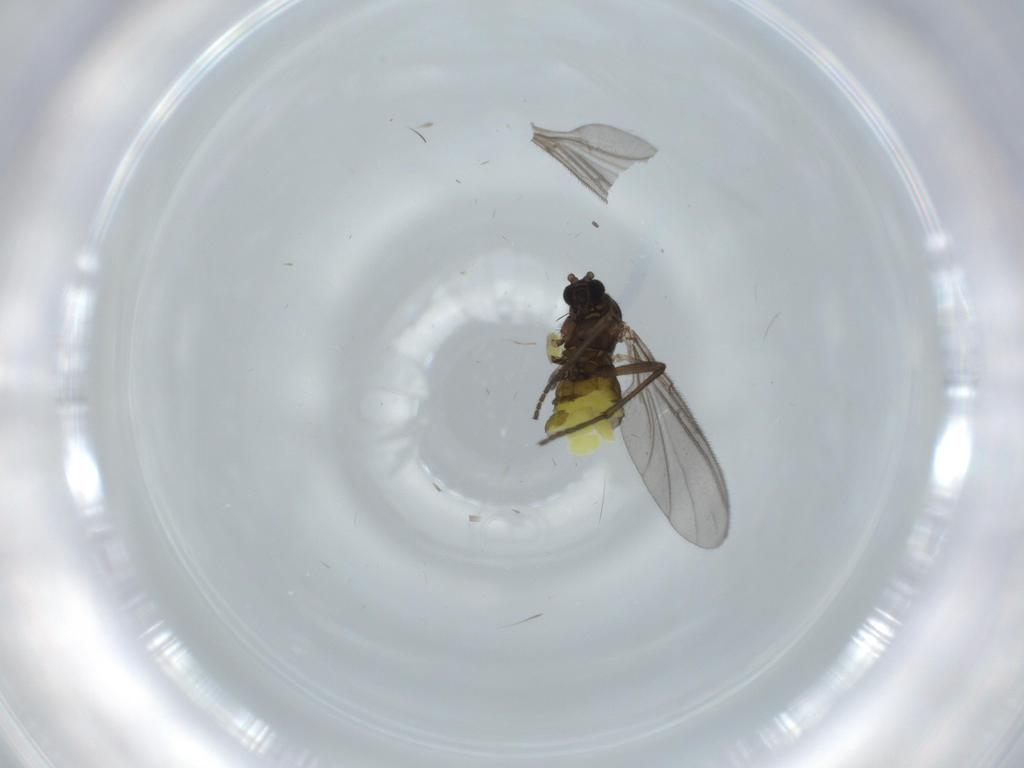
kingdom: Animalia
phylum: Arthropoda
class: Insecta
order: Diptera
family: Sciaridae
